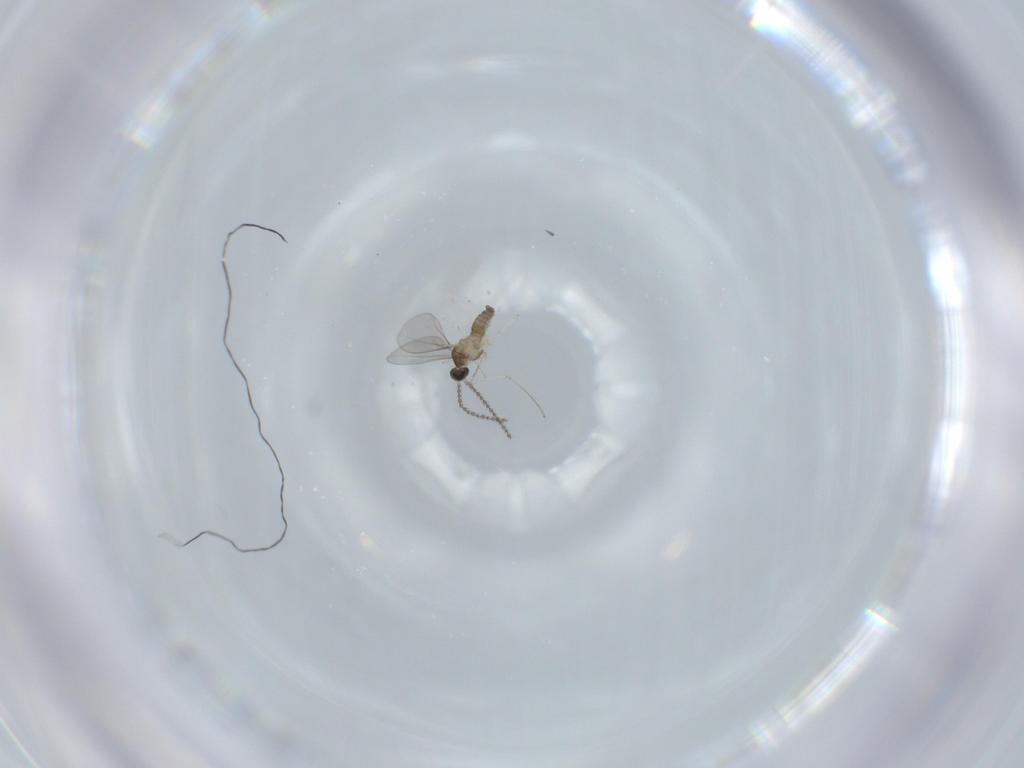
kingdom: Animalia
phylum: Arthropoda
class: Insecta
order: Diptera
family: Cecidomyiidae
